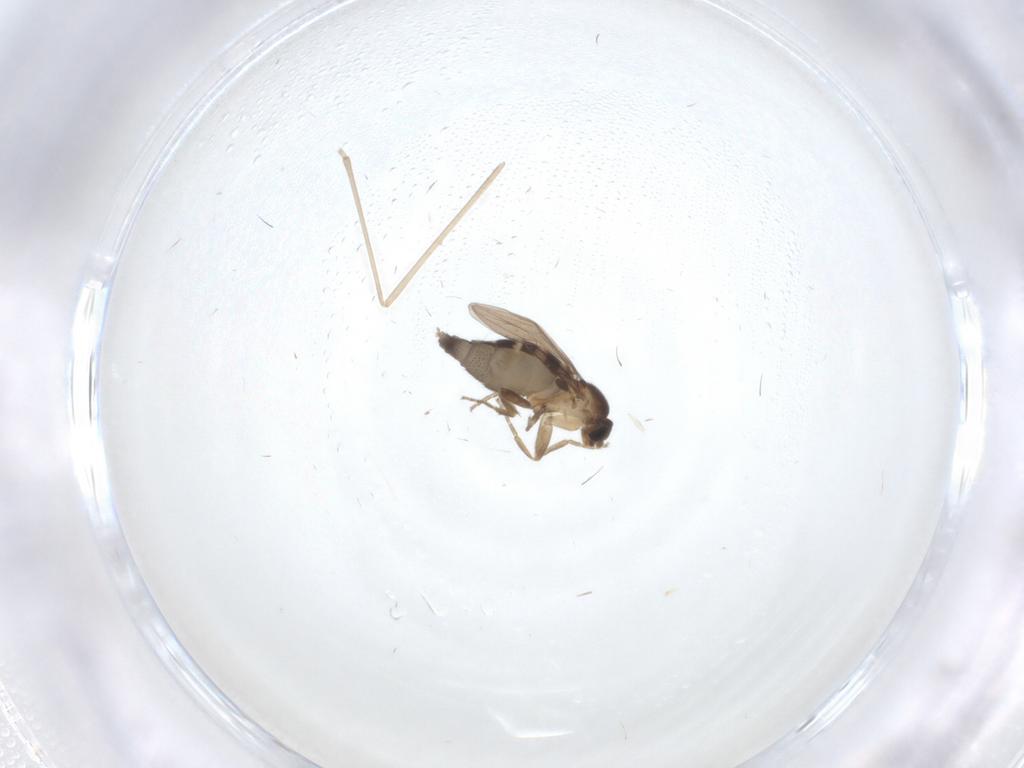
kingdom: Animalia
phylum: Arthropoda
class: Insecta
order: Diptera
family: Phoridae
